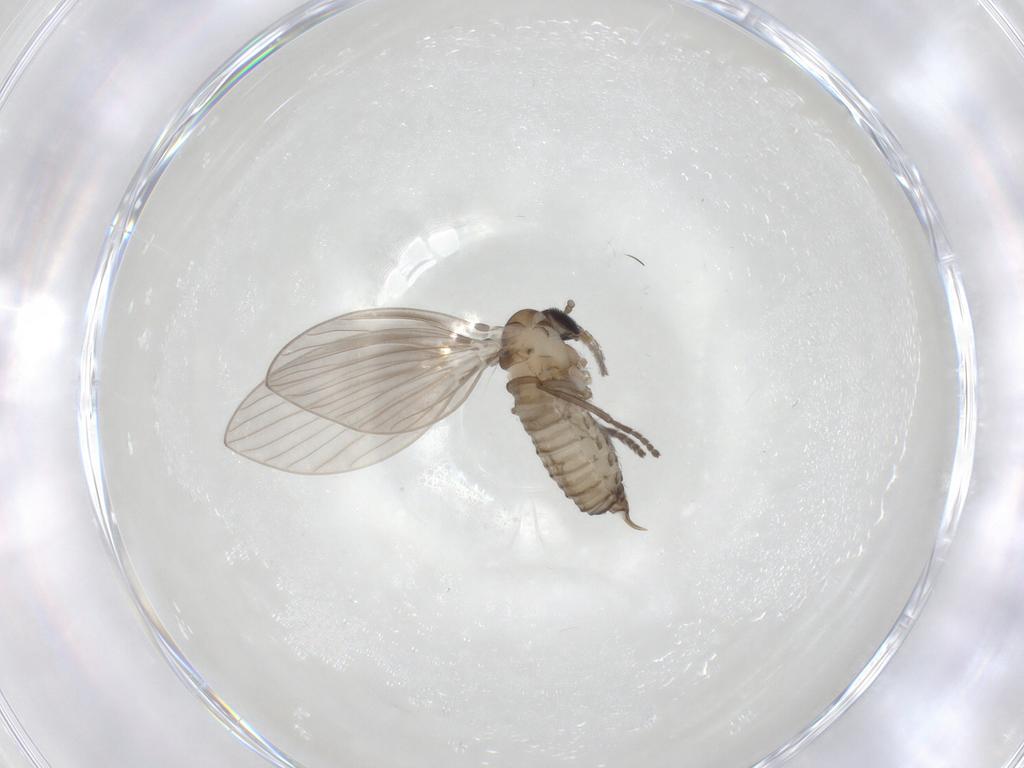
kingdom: Animalia
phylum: Arthropoda
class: Insecta
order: Diptera
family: Psychodidae
